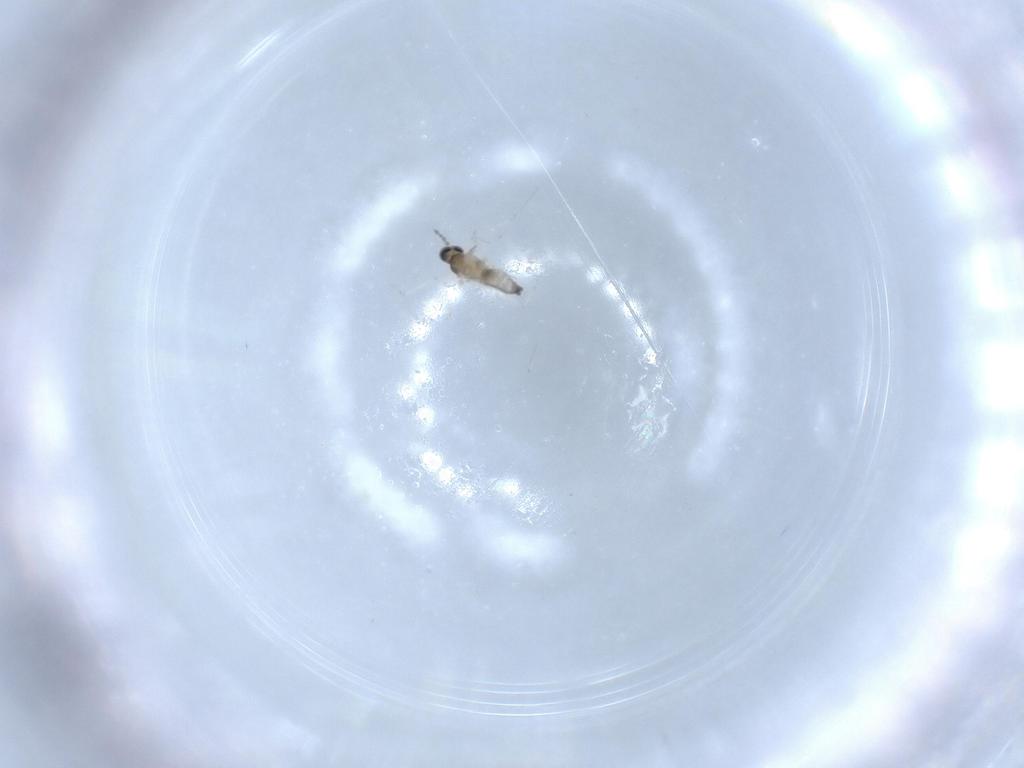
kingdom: Animalia
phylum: Arthropoda
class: Insecta
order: Diptera
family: Cecidomyiidae
